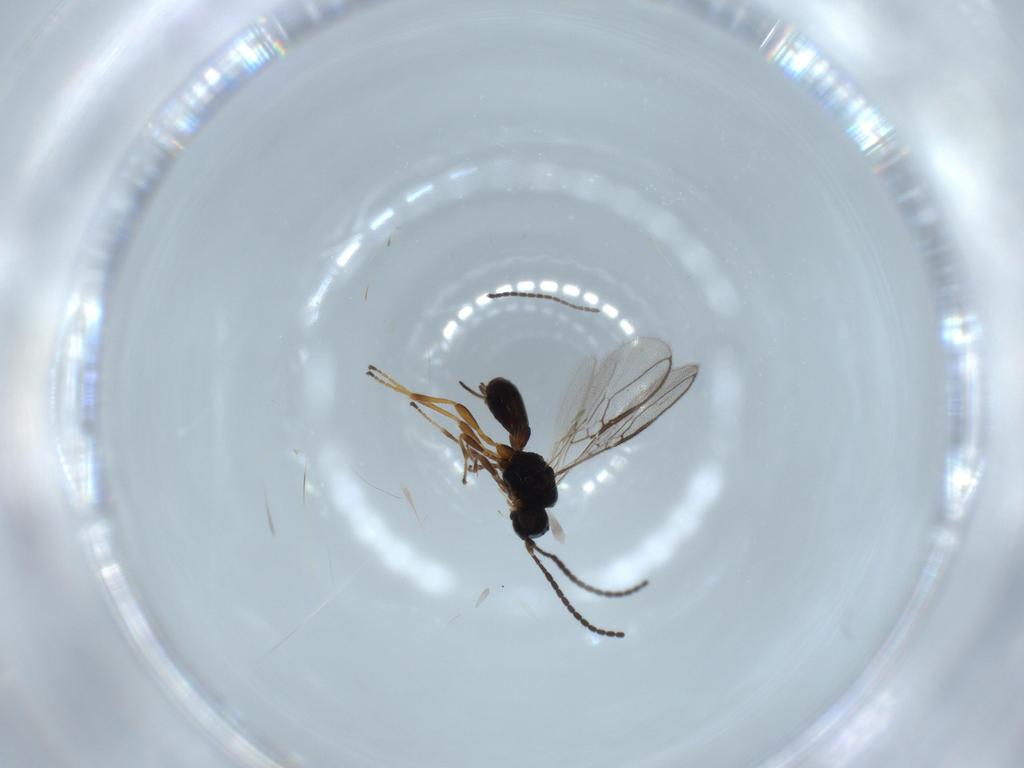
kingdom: Animalia
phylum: Arthropoda
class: Insecta
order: Hymenoptera
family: Braconidae
